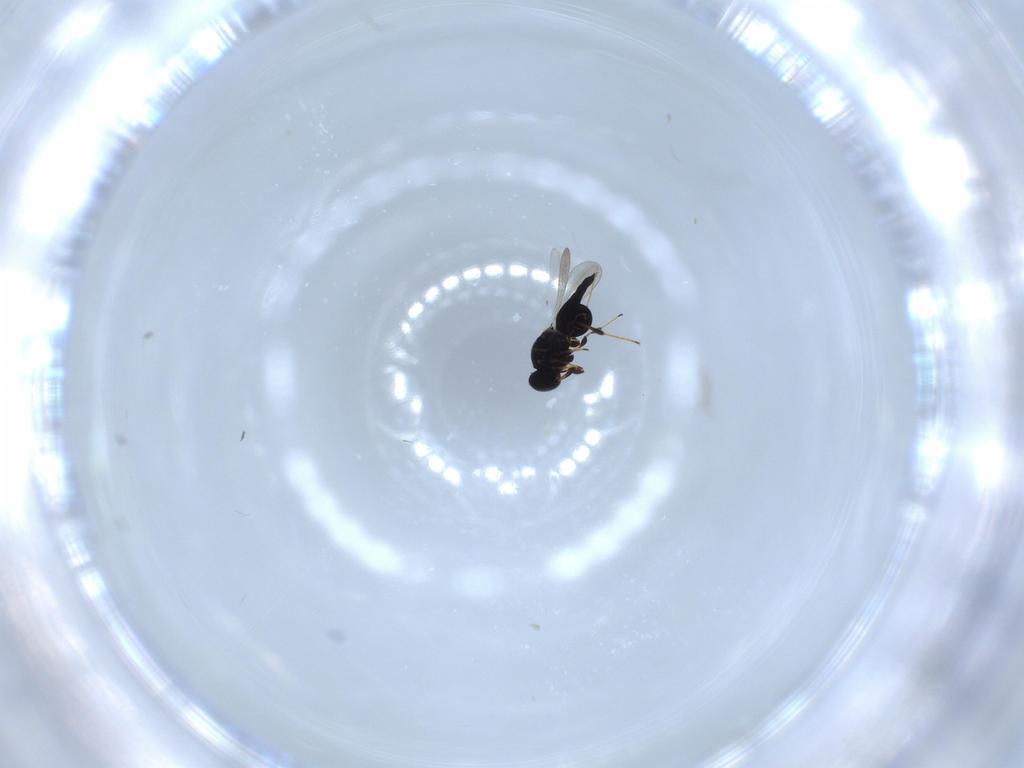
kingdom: Animalia
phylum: Arthropoda
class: Insecta
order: Hymenoptera
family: Platygastridae
